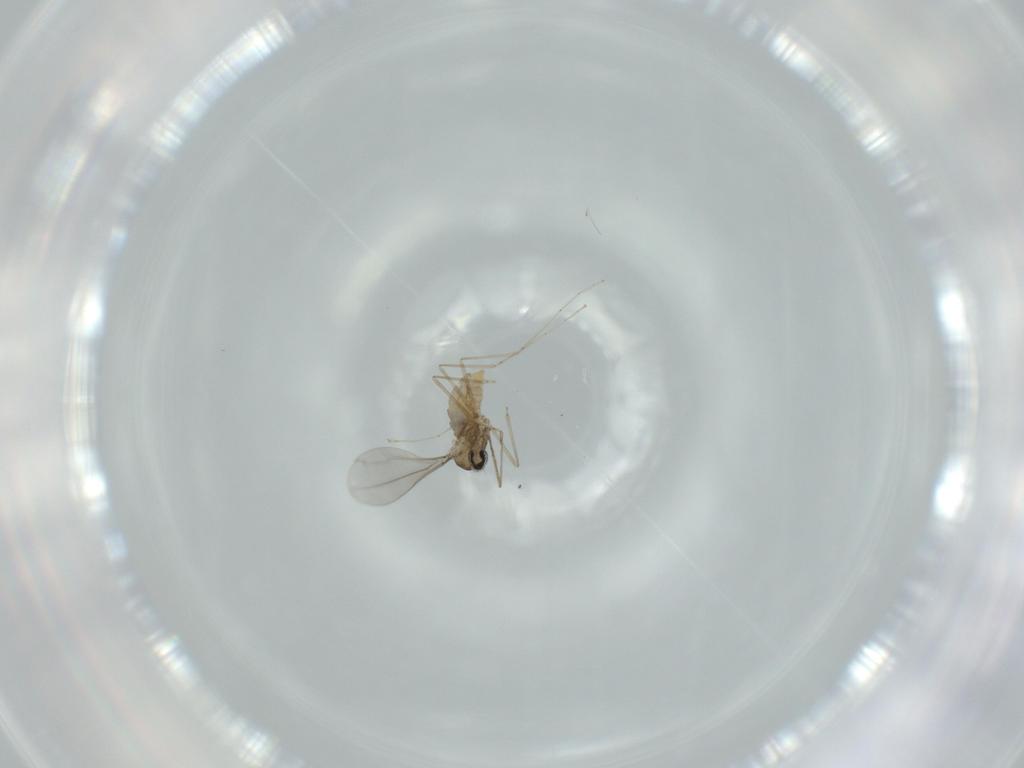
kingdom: Animalia
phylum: Arthropoda
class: Insecta
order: Diptera
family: Cecidomyiidae
